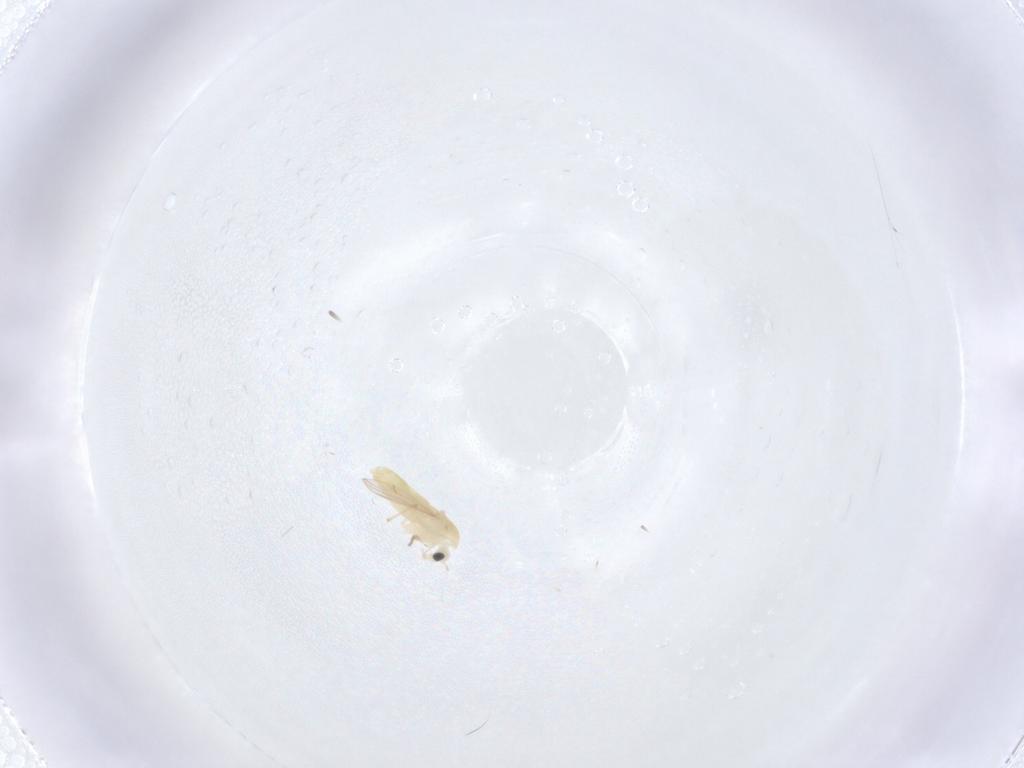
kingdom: Animalia
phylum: Arthropoda
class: Insecta
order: Diptera
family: Chironomidae
